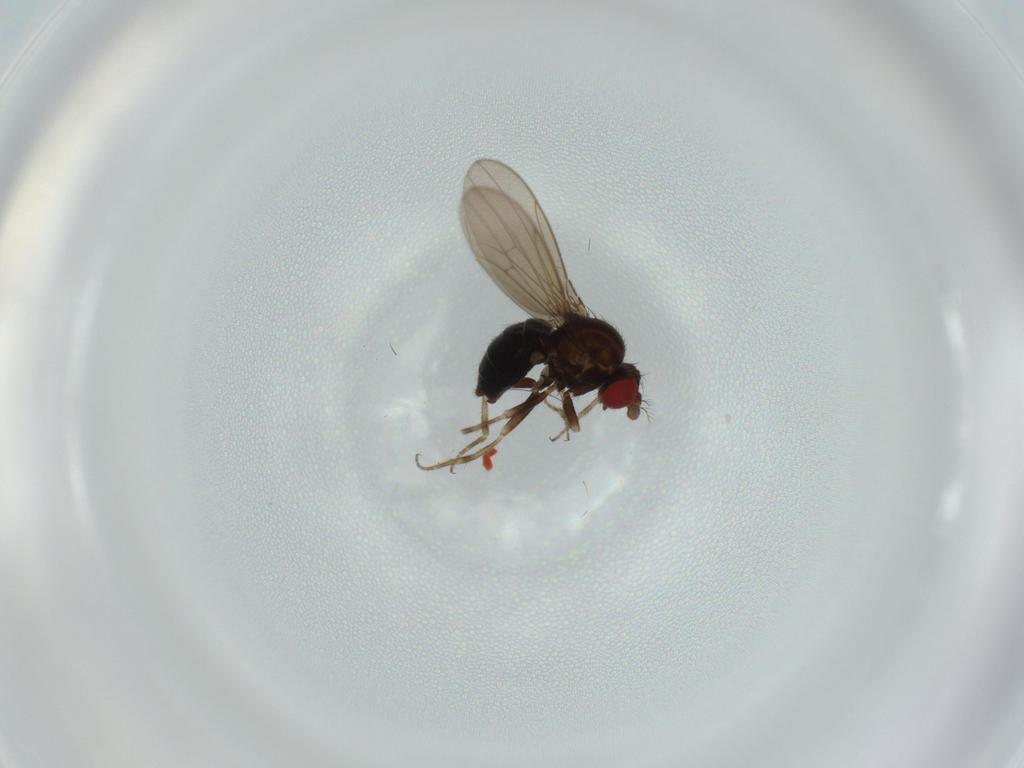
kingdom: Animalia
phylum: Arthropoda
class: Insecta
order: Diptera
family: Drosophilidae
